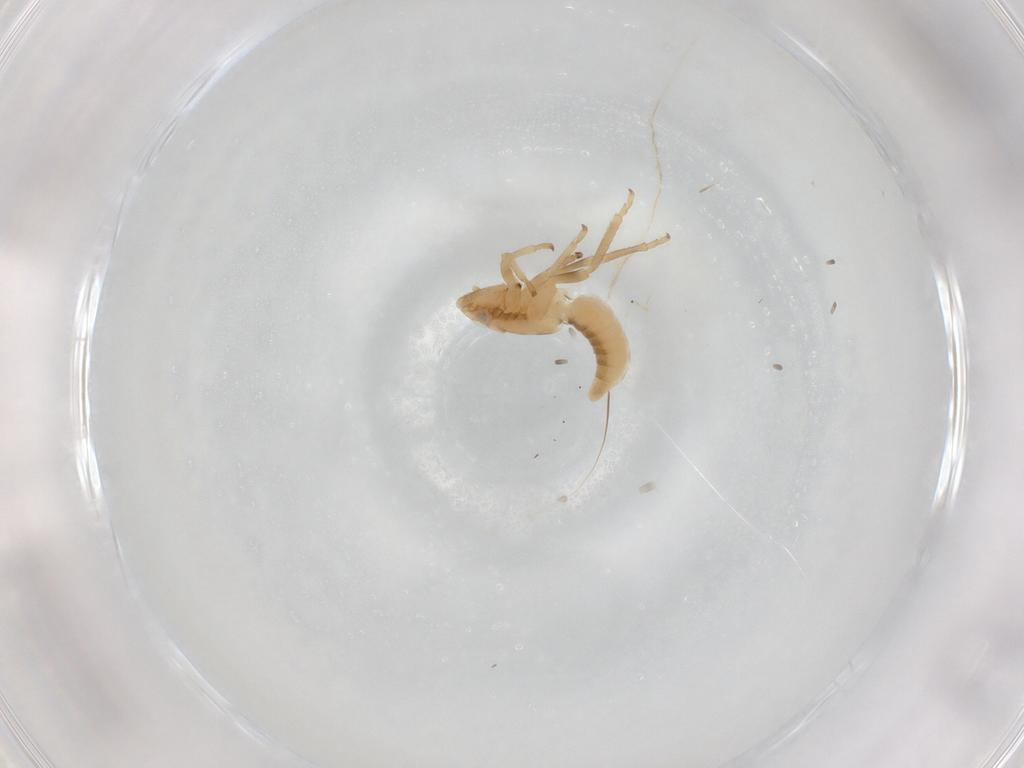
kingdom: Animalia
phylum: Arthropoda
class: Insecta
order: Hemiptera
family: Cicadellidae
